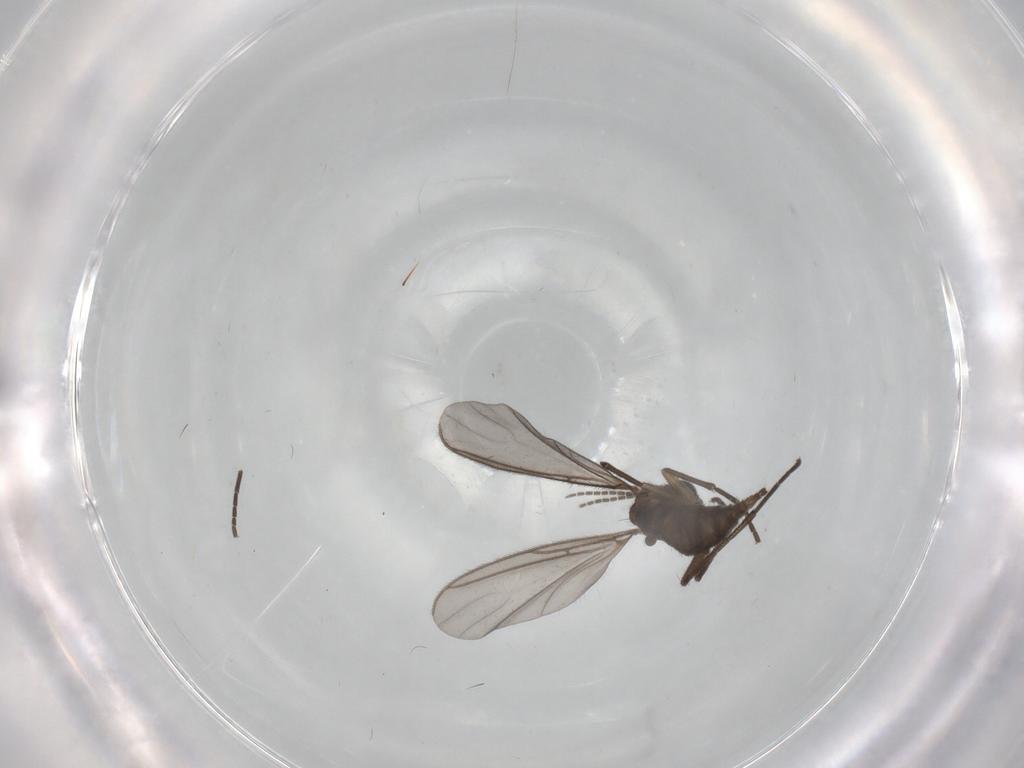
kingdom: Animalia
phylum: Arthropoda
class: Insecta
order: Diptera
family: Sciaridae
